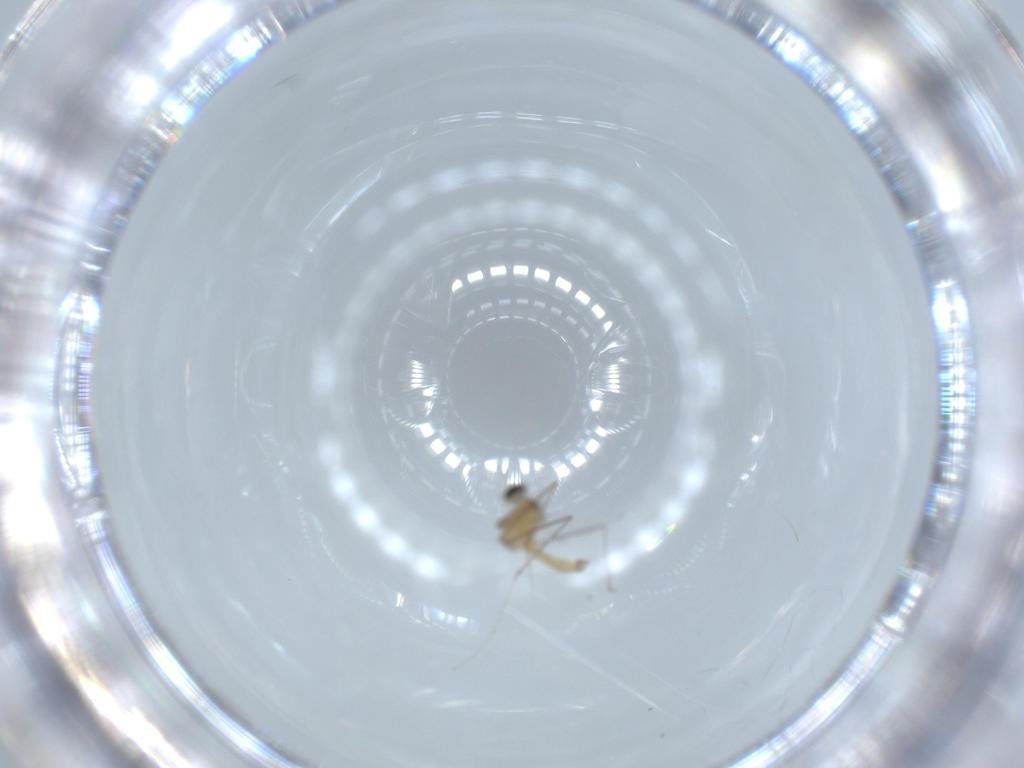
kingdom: Animalia
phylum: Arthropoda
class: Insecta
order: Diptera
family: Cecidomyiidae
